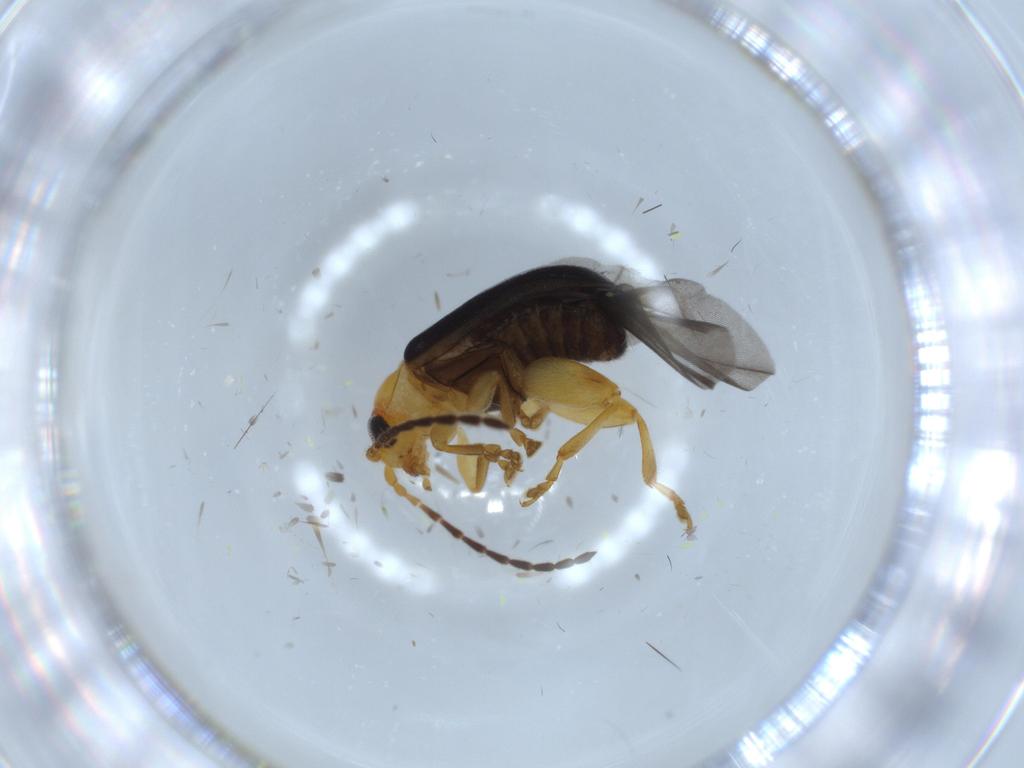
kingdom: Animalia
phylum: Arthropoda
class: Insecta
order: Coleoptera
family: Chrysomelidae
